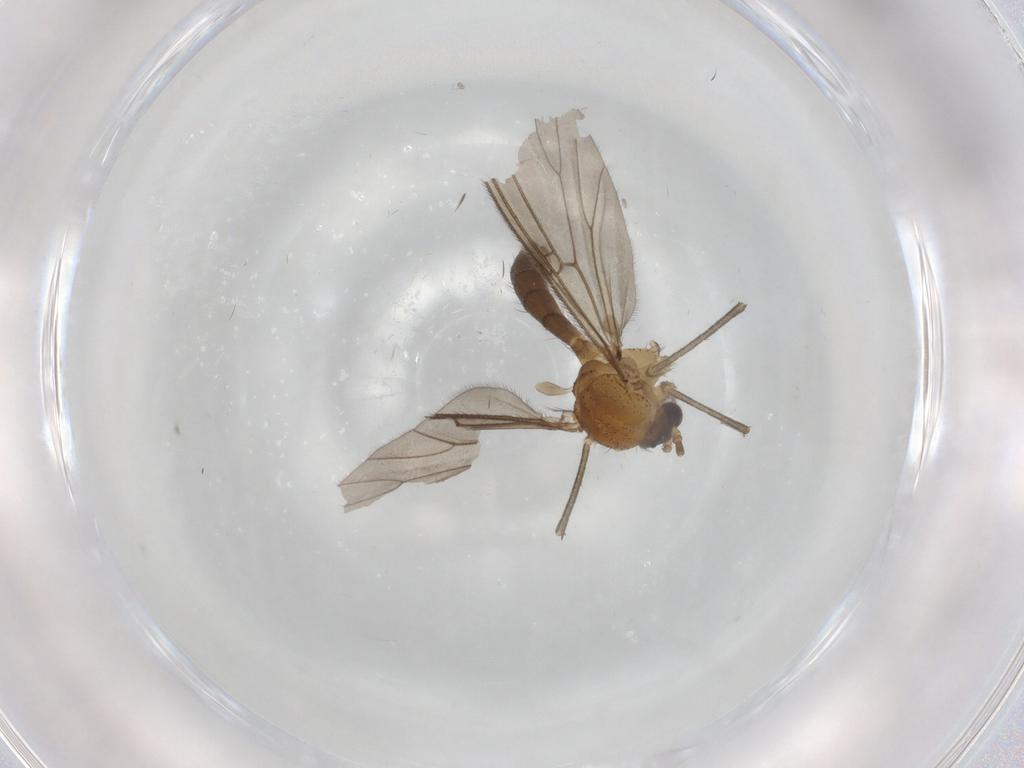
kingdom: Animalia
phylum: Arthropoda
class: Insecta
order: Diptera
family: Mycetophilidae
